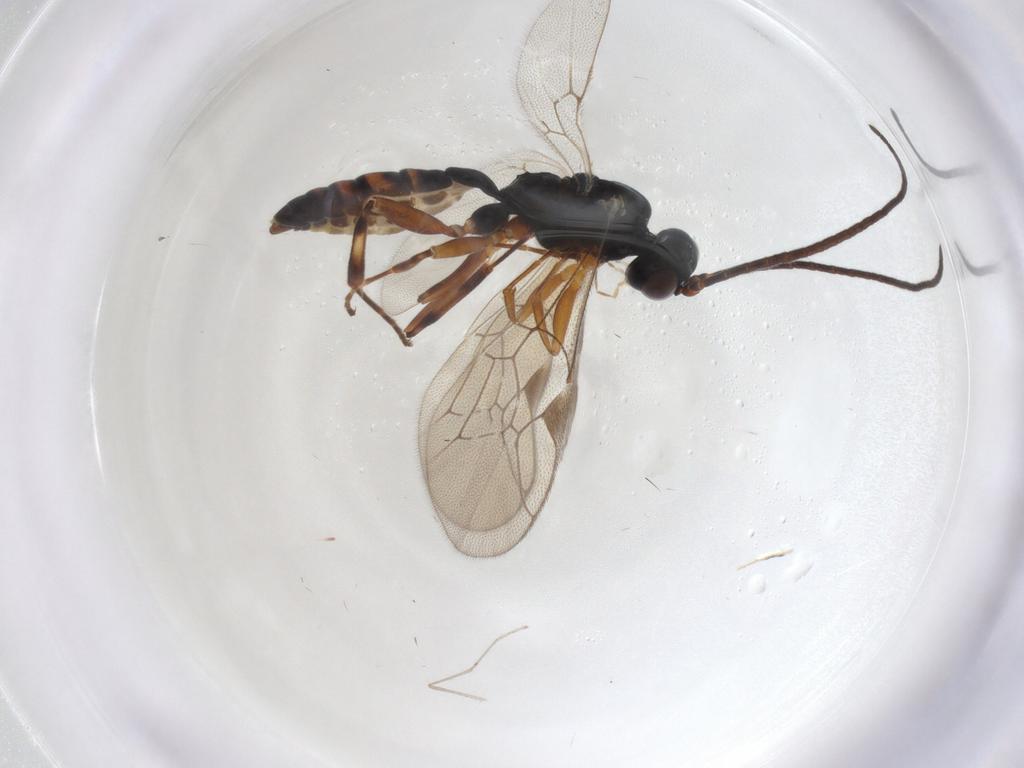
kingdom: Animalia
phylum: Arthropoda
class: Insecta
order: Hymenoptera
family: Ichneumonidae
